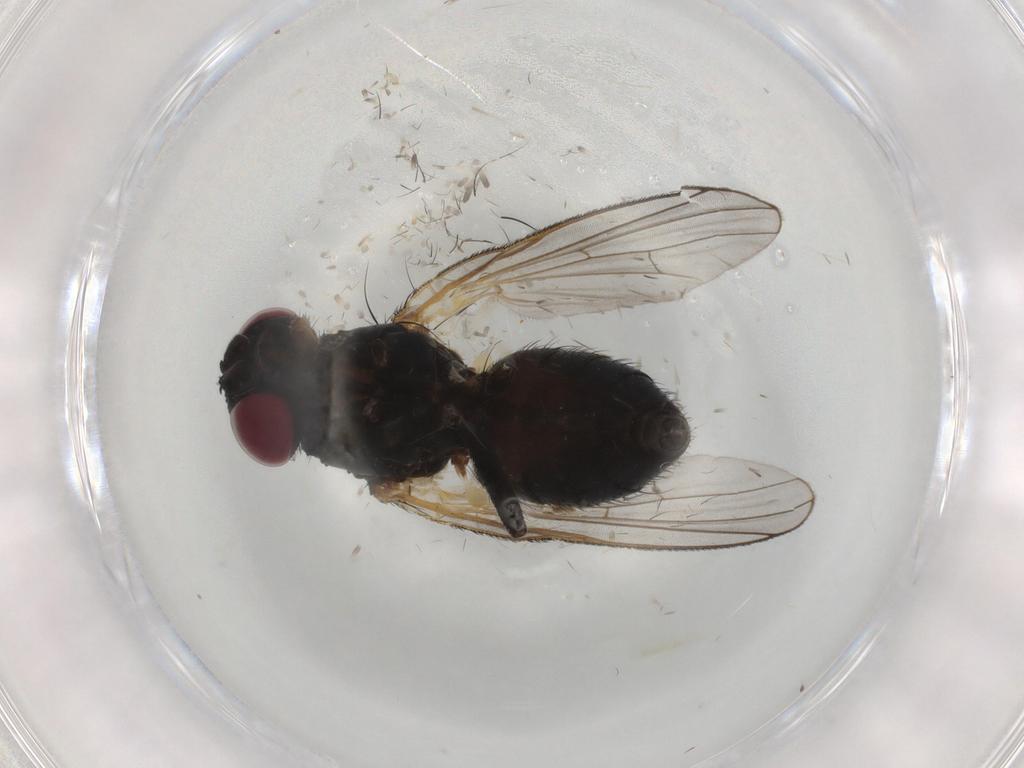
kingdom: Animalia
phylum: Arthropoda
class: Insecta
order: Diptera
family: Fannia
